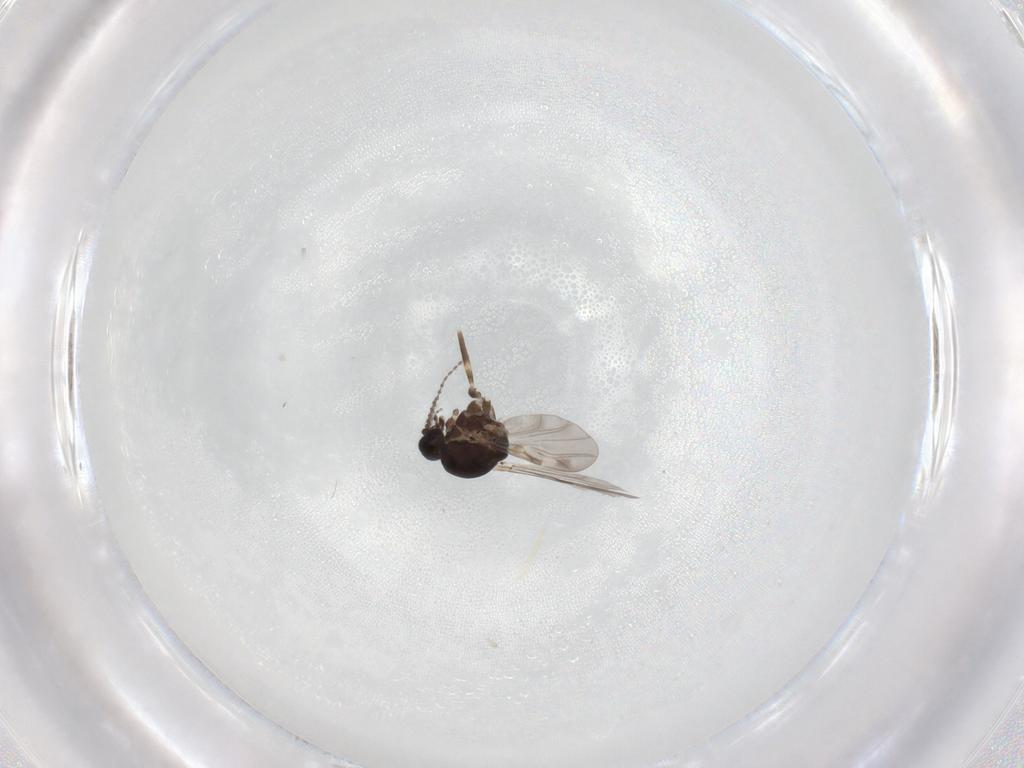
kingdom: Animalia
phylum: Arthropoda
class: Insecta
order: Diptera
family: Ceratopogonidae
